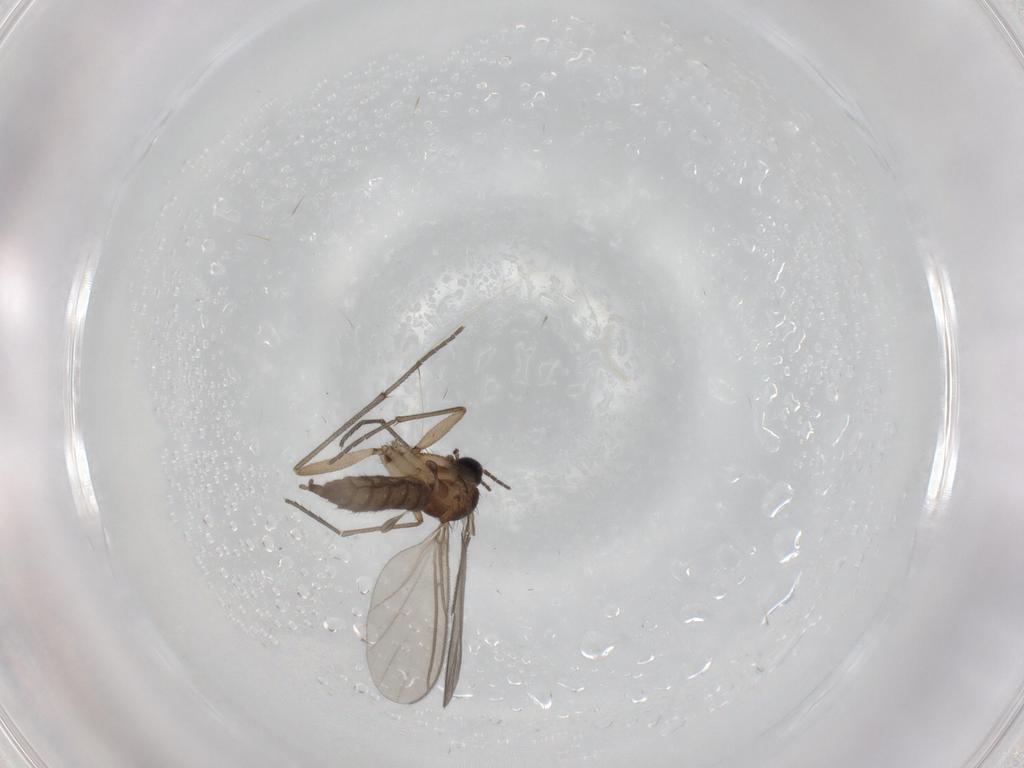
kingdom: Animalia
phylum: Arthropoda
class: Insecta
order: Diptera
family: Sciaridae
